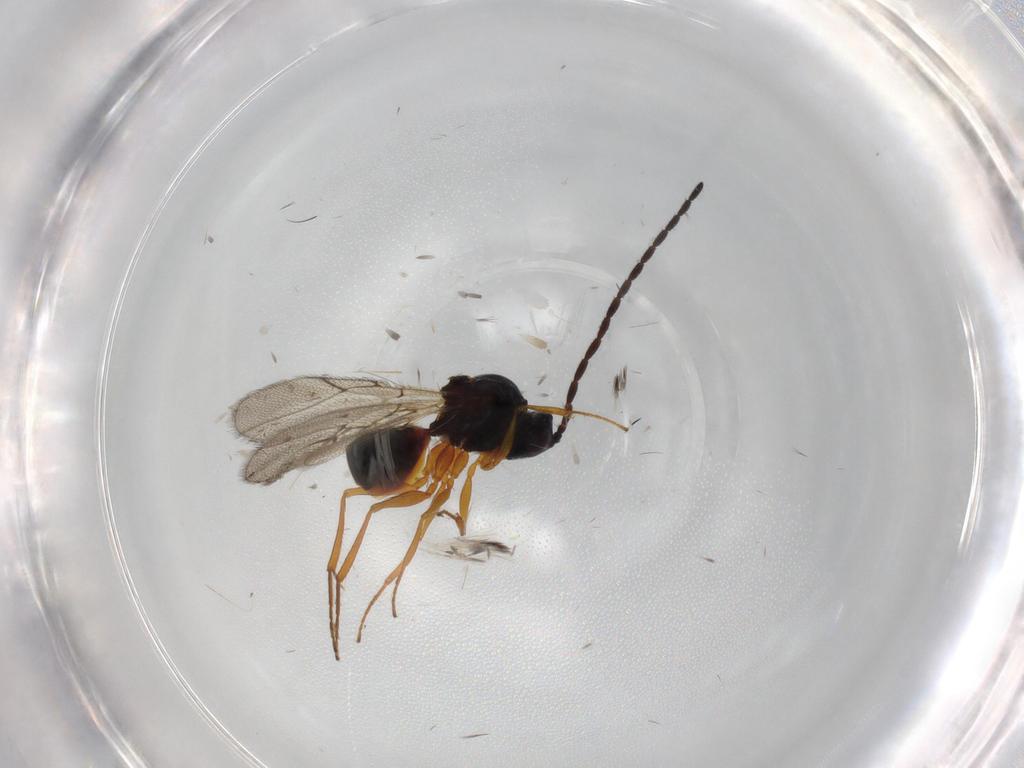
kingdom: Animalia
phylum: Arthropoda
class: Insecta
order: Hymenoptera
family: Figitidae
